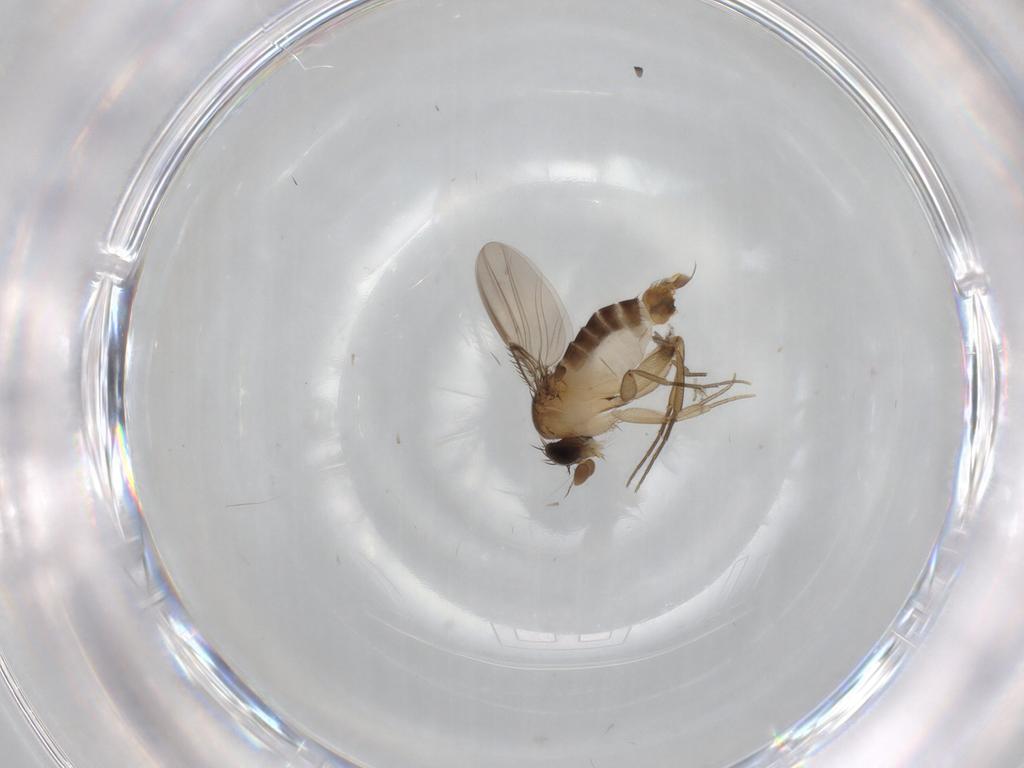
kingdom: Animalia
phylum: Arthropoda
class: Insecta
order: Diptera
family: Phoridae
